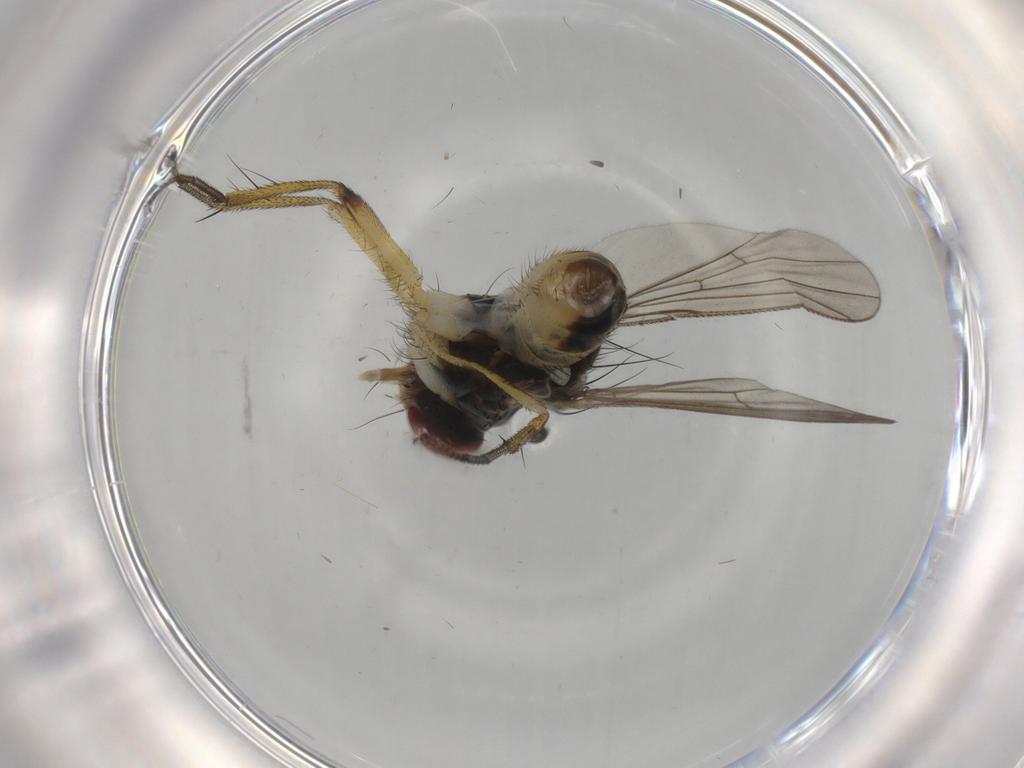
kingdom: Animalia
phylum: Arthropoda
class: Insecta
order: Diptera
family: Muscidae
